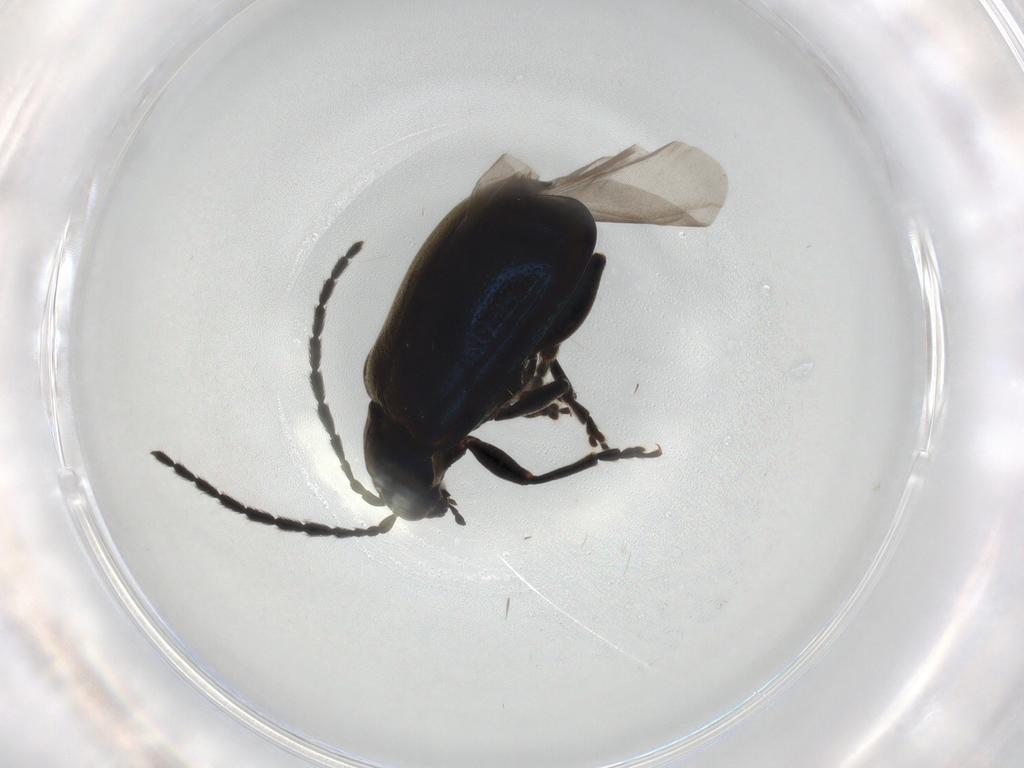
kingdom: Animalia
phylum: Arthropoda
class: Insecta
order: Coleoptera
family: Chrysomelidae
